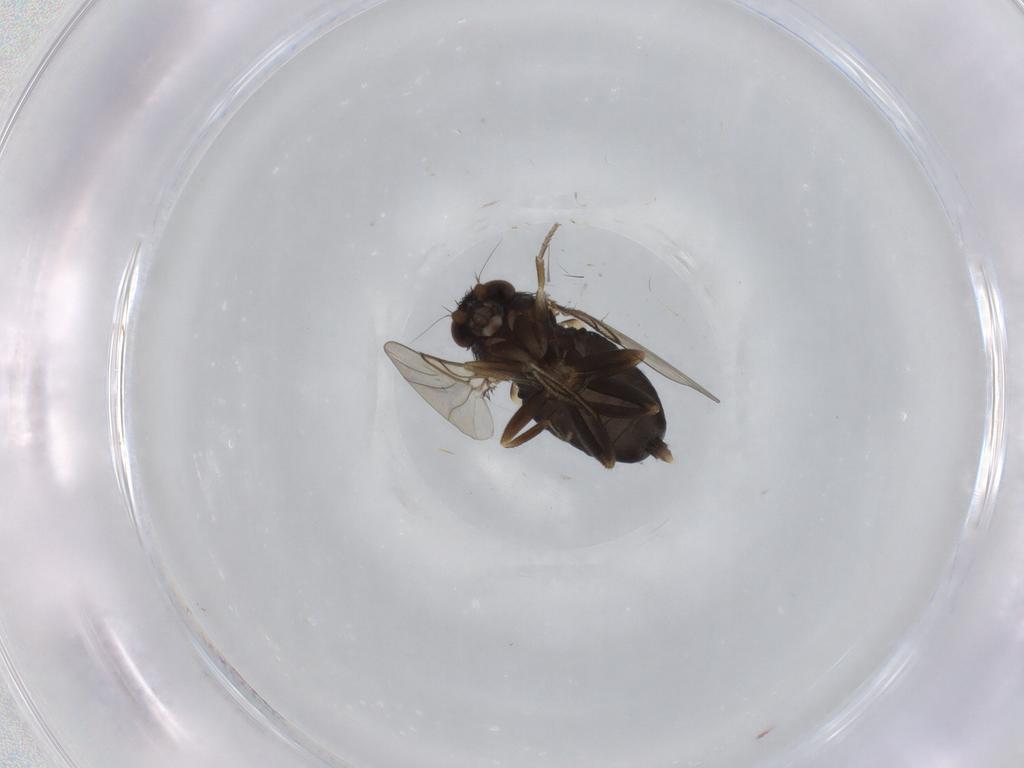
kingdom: Animalia
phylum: Arthropoda
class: Insecta
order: Diptera
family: Phoridae
